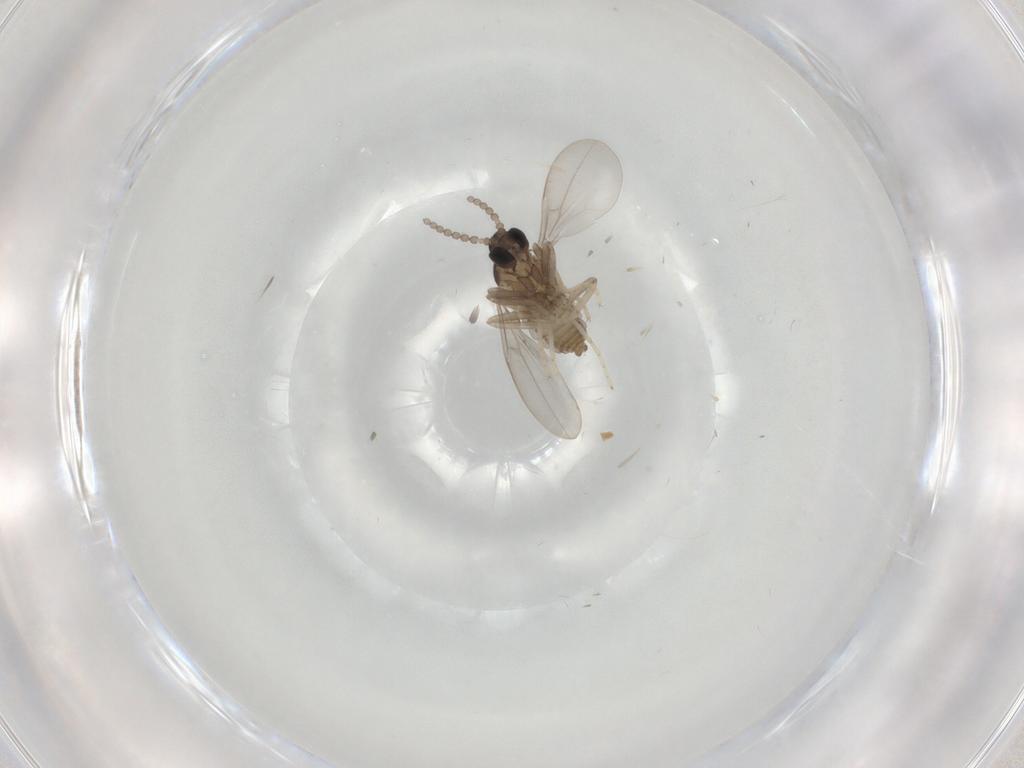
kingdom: Animalia
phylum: Arthropoda
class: Insecta
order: Diptera
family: Cecidomyiidae
